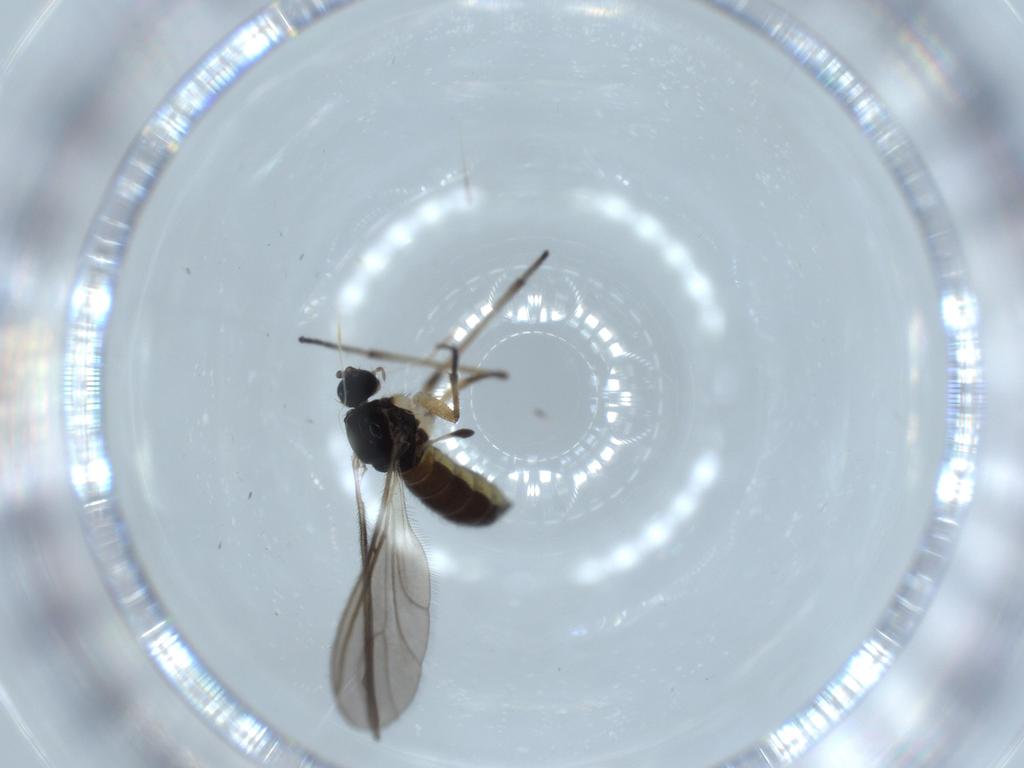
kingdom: Animalia
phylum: Arthropoda
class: Insecta
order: Diptera
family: Sciaridae
